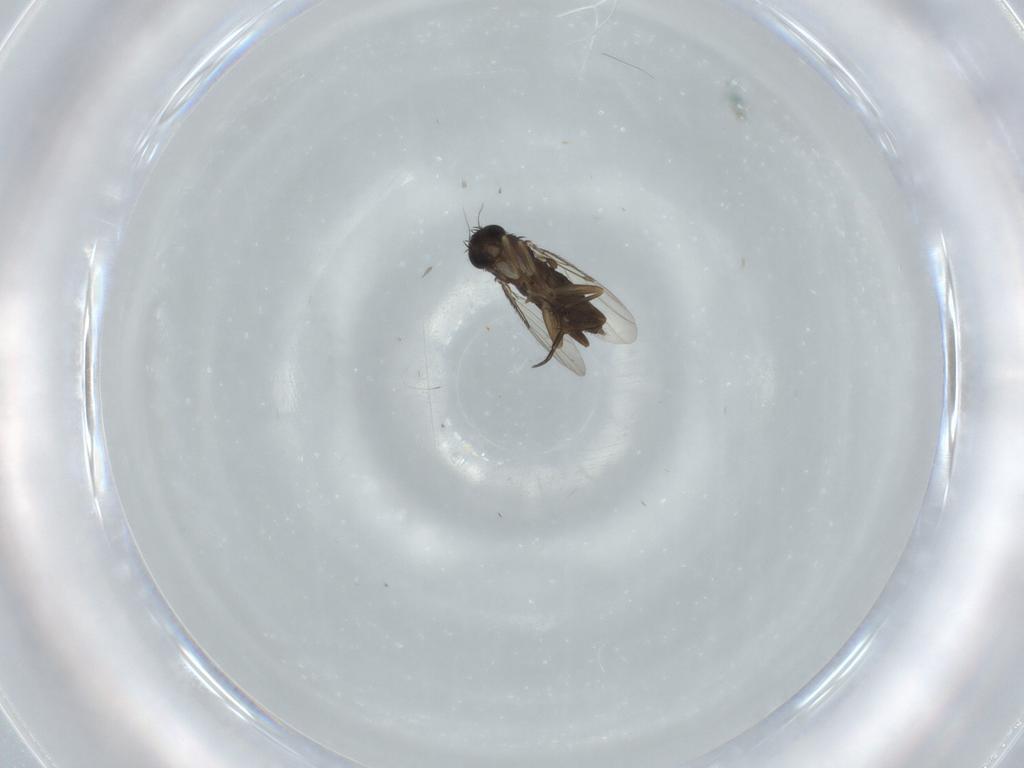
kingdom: Animalia
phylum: Arthropoda
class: Insecta
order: Diptera
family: Phoridae
